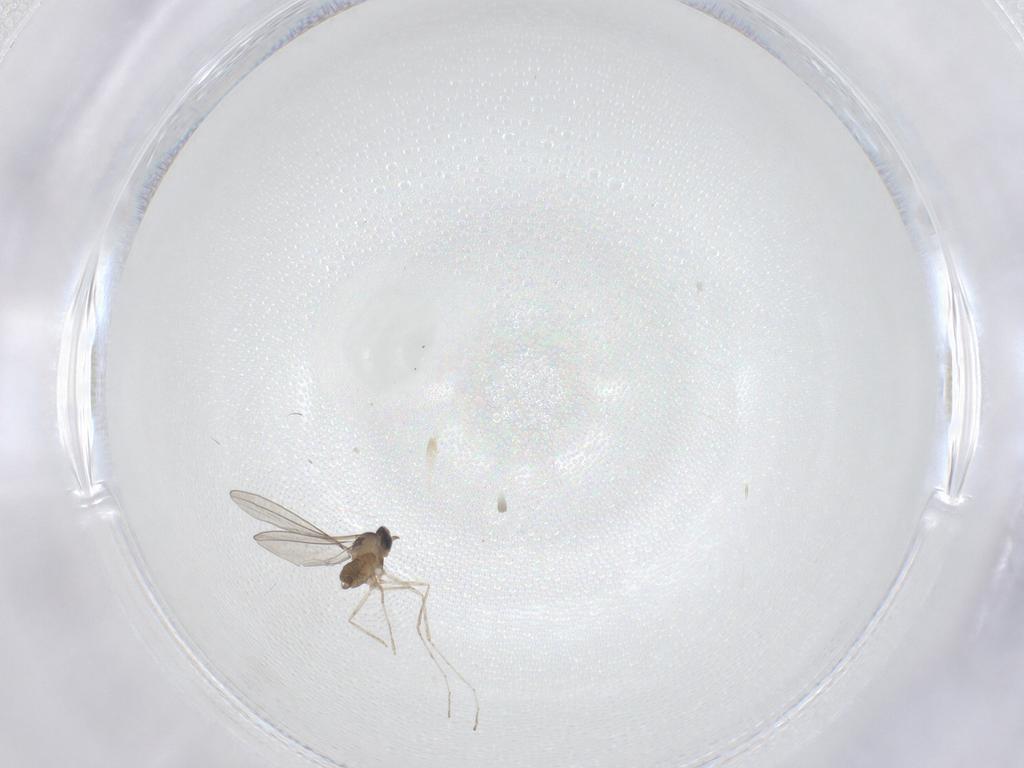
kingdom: Animalia
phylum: Arthropoda
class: Insecta
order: Diptera
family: Cecidomyiidae
